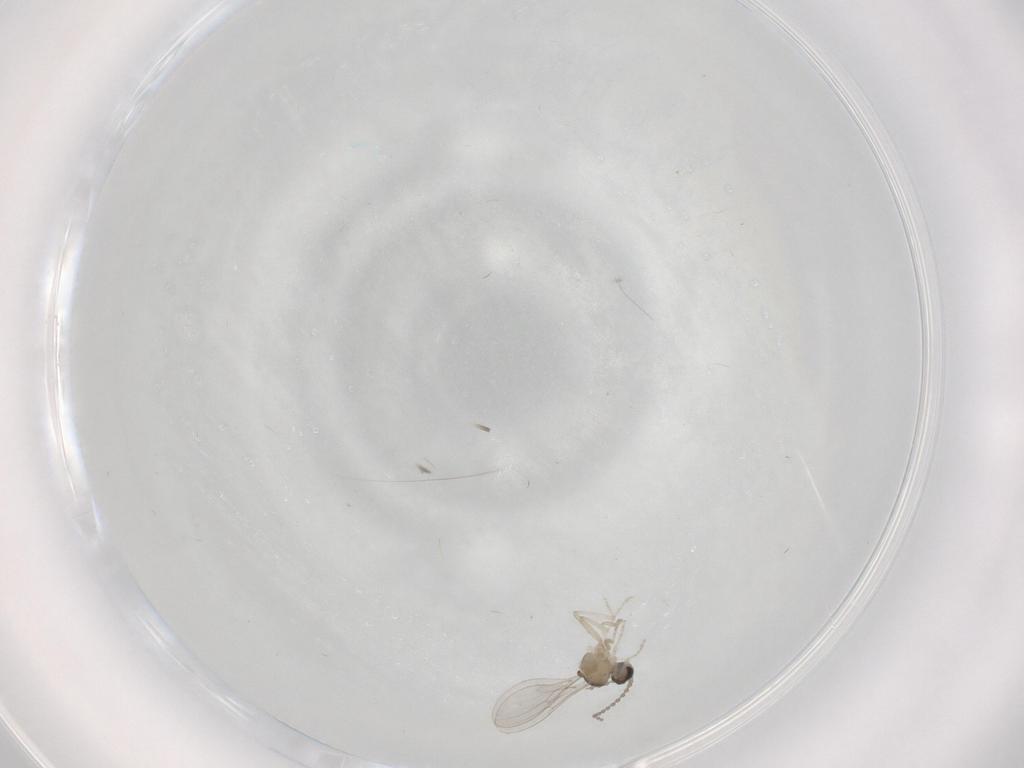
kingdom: Animalia
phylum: Arthropoda
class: Insecta
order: Diptera
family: Cecidomyiidae
